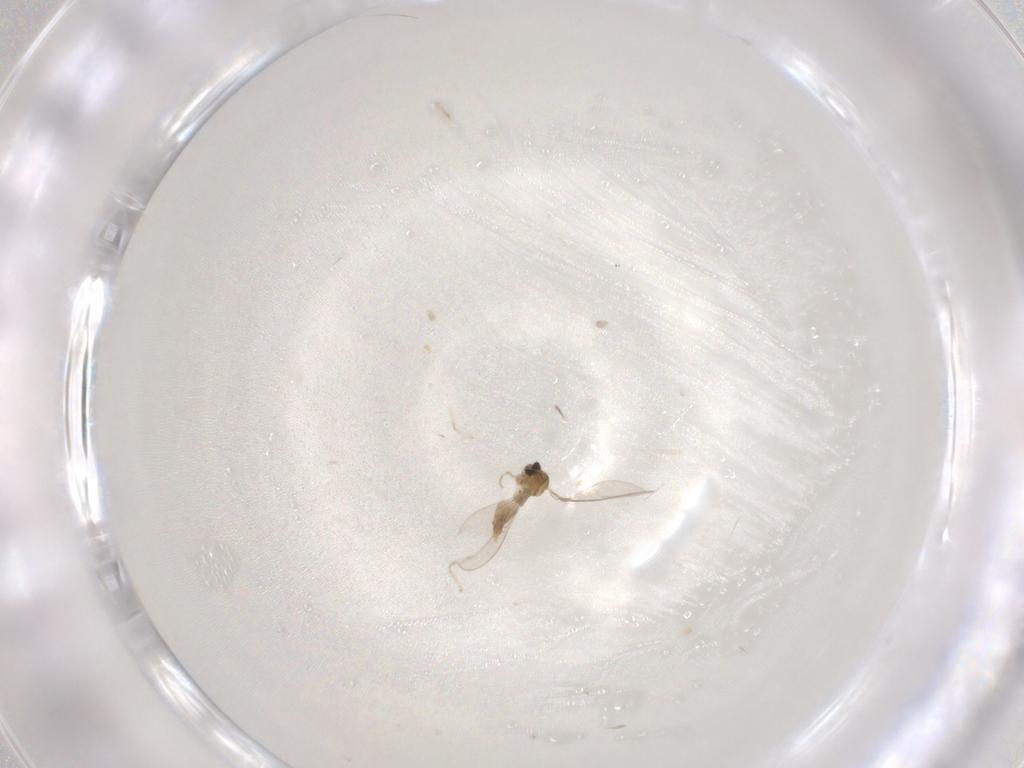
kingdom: Animalia
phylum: Arthropoda
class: Insecta
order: Diptera
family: Cecidomyiidae
